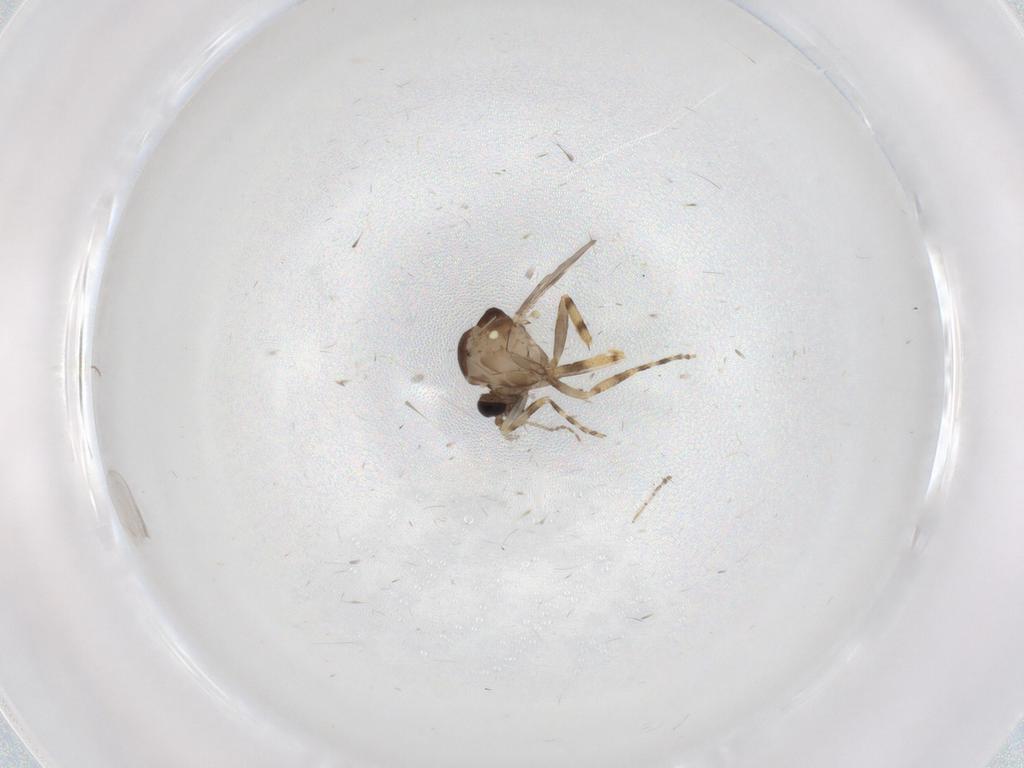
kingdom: Animalia
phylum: Arthropoda
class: Insecta
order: Diptera
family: Ceratopogonidae
